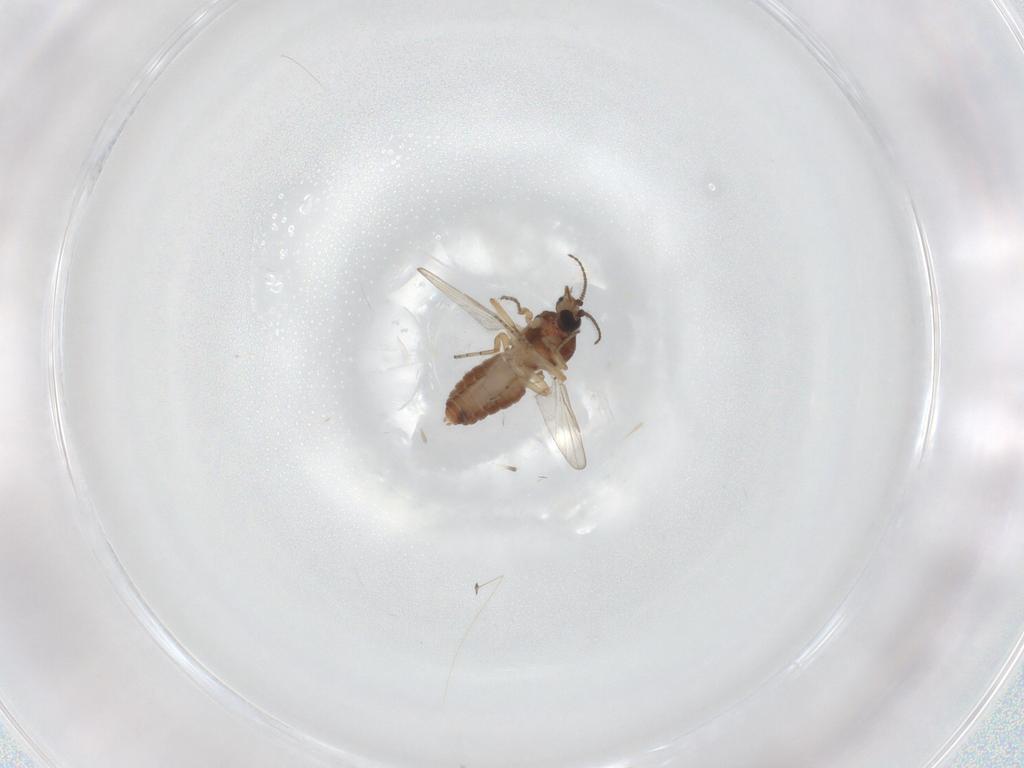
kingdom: Animalia
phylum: Arthropoda
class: Insecta
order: Diptera
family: Ceratopogonidae
